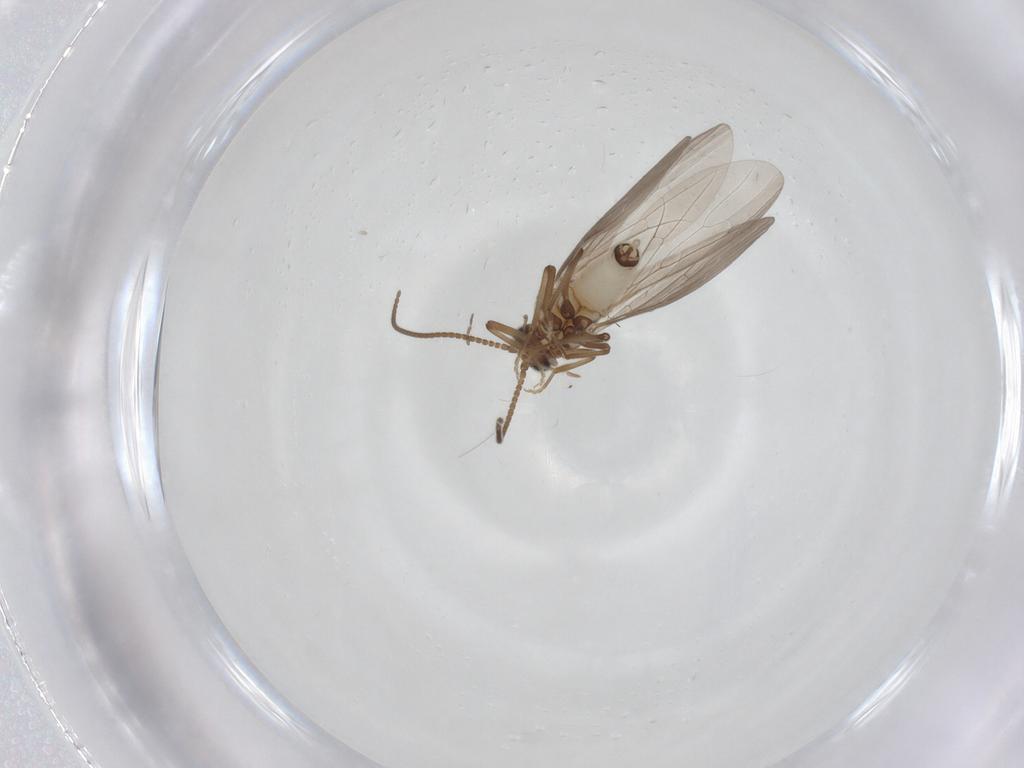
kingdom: Animalia
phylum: Arthropoda
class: Insecta
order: Neuroptera
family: Coniopterygidae
